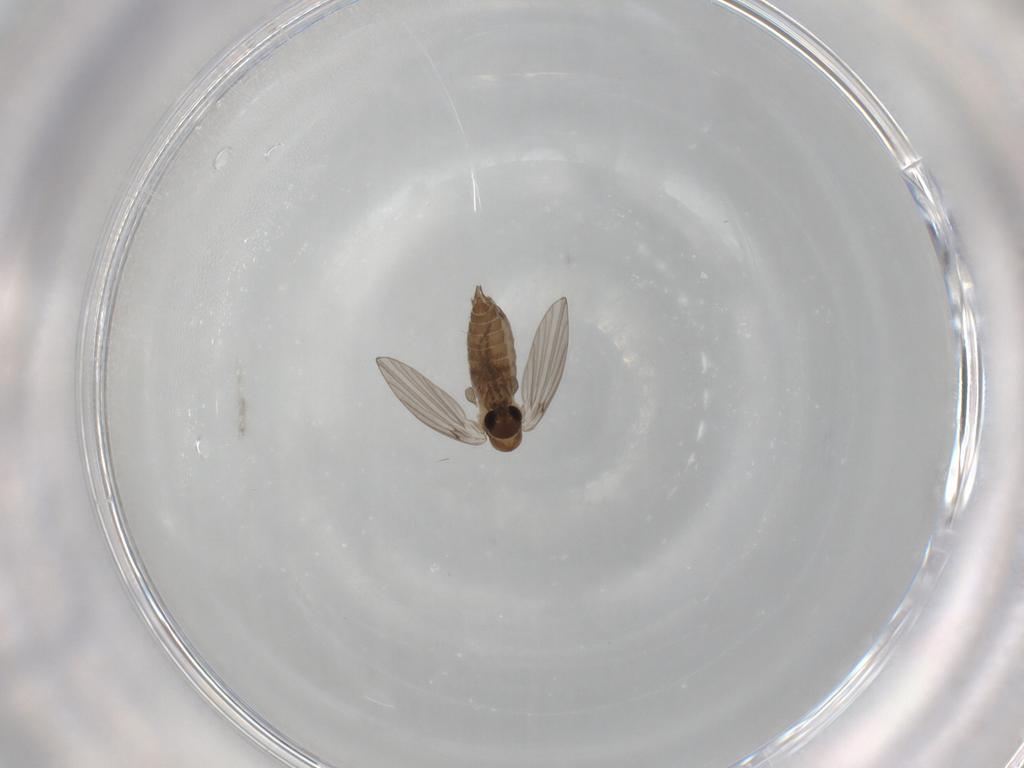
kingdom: Animalia
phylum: Arthropoda
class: Insecta
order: Diptera
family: Psychodidae
